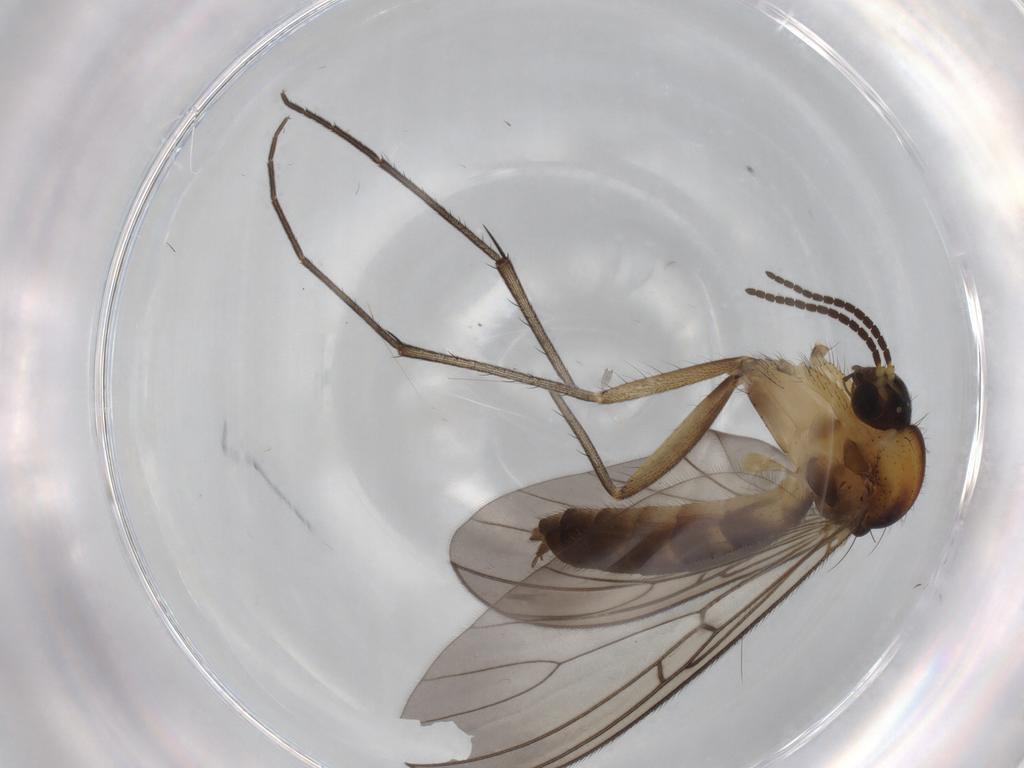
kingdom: Animalia
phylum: Arthropoda
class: Insecta
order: Diptera
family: Mycetophilidae
